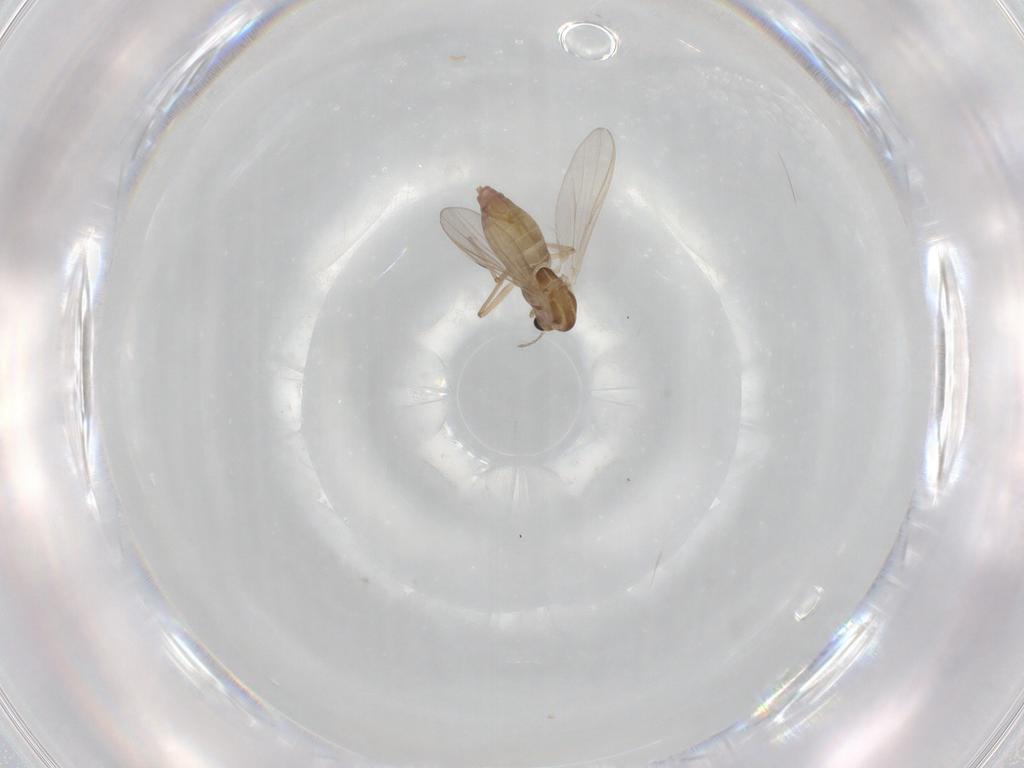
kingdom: Animalia
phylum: Arthropoda
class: Insecta
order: Diptera
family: Chironomidae
